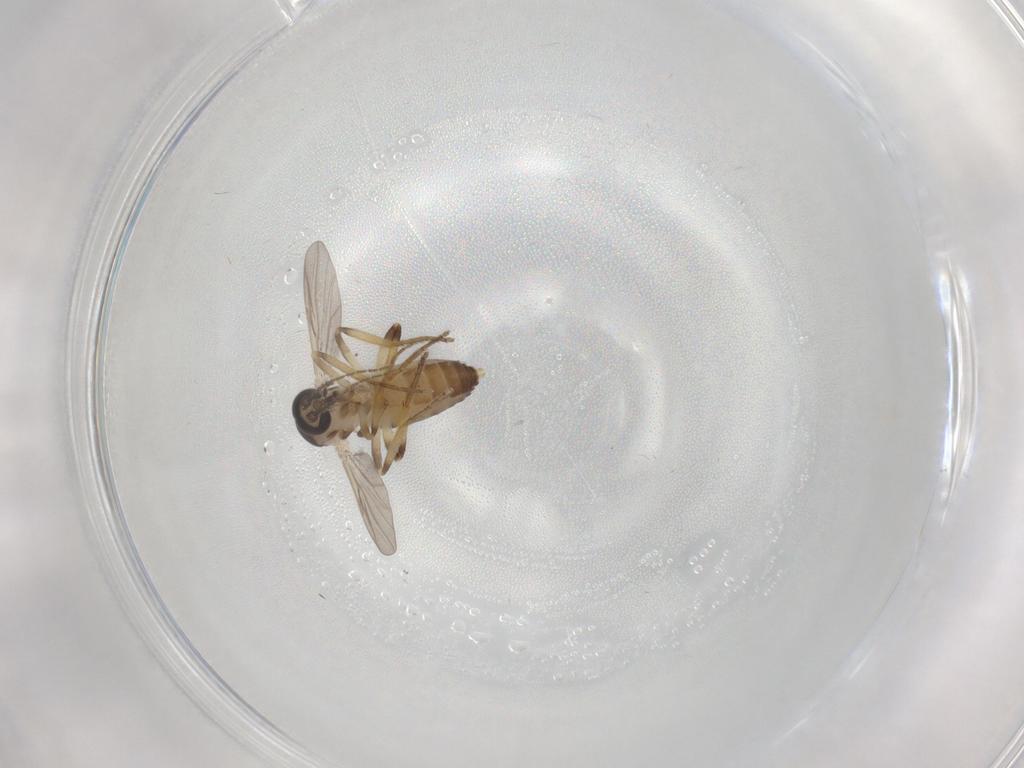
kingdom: Animalia
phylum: Arthropoda
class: Insecta
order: Diptera
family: Ceratopogonidae
